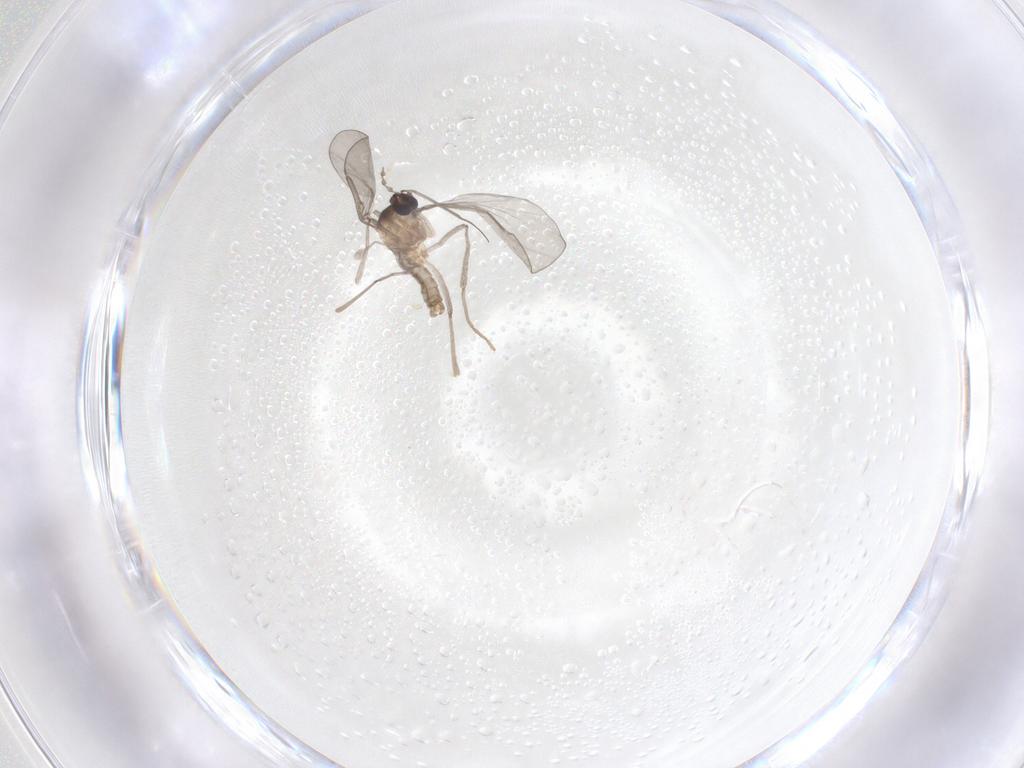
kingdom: Animalia
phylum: Arthropoda
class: Insecta
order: Diptera
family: Cecidomyiidae
